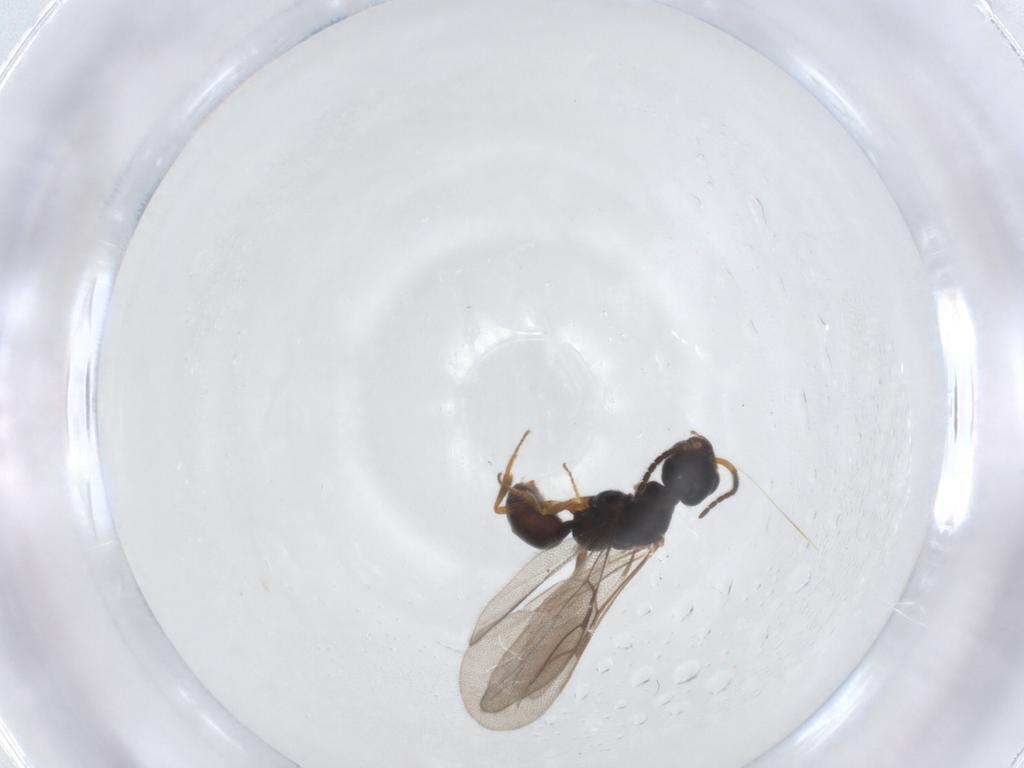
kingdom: Animalia
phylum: Arthropoda
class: Insecta
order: Hymenoptera
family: Bethylidae
